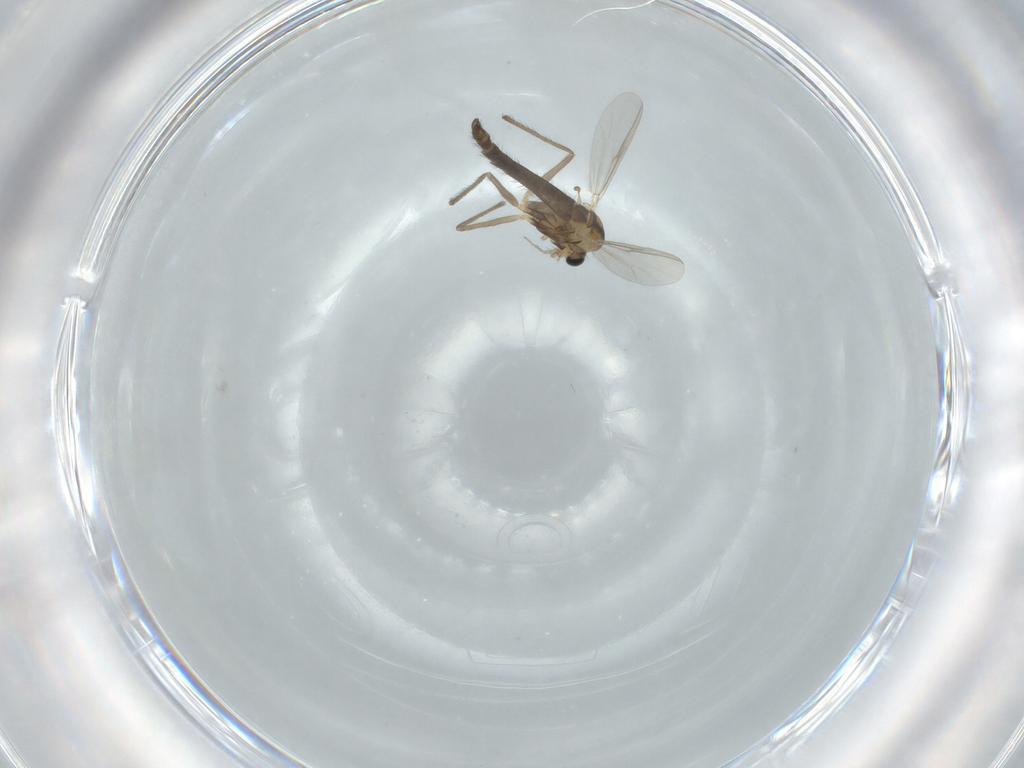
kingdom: Animalia
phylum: Arthropoda
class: Insecta
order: Diptera
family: Chironomidae
